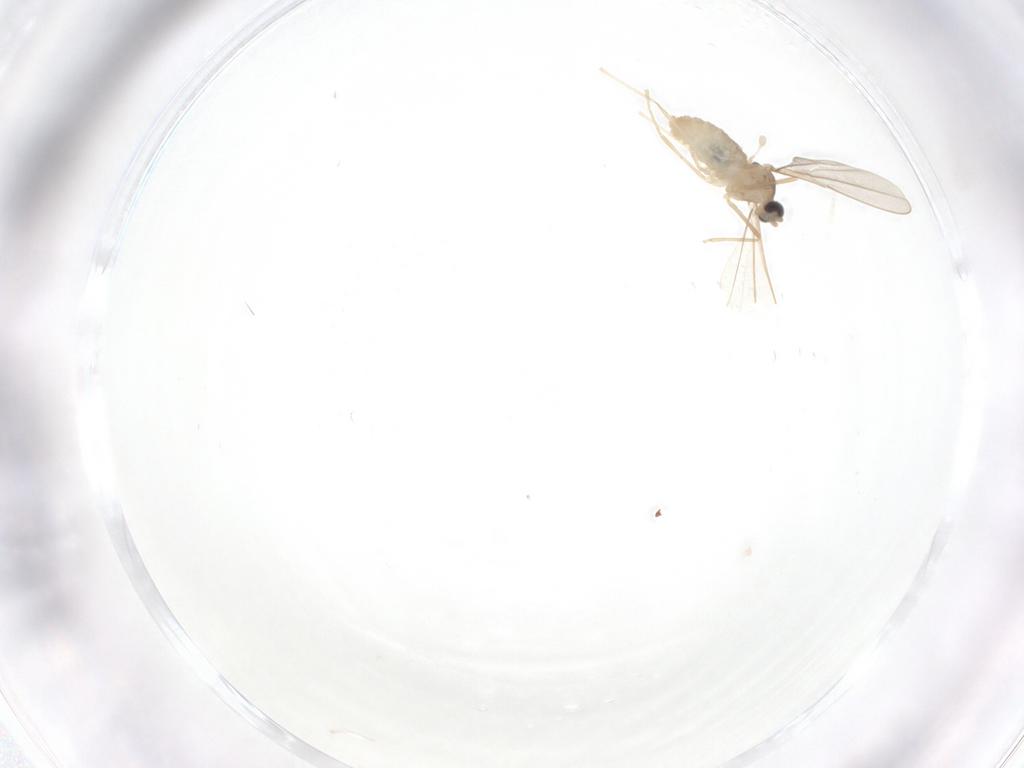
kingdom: Animalia
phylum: Arthropoda
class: Insecta
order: Diptera
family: Cecidomyiidae
